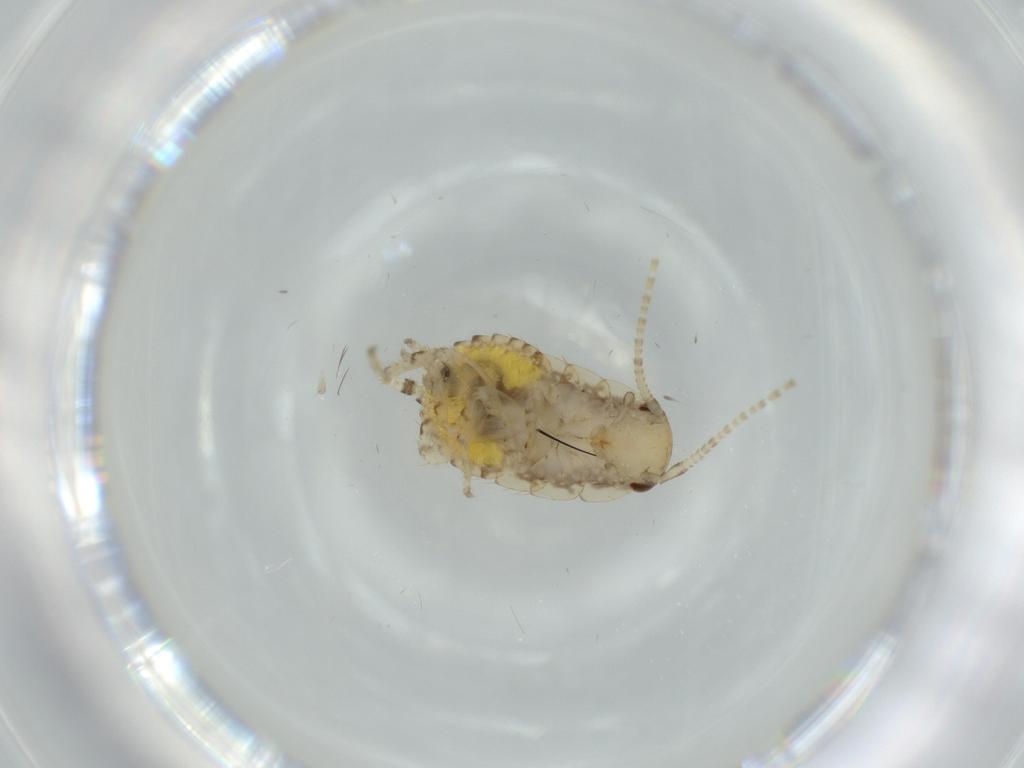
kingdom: Animalia
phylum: Arthropoda
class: Insecta
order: Blattodea
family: Ectobiidae
